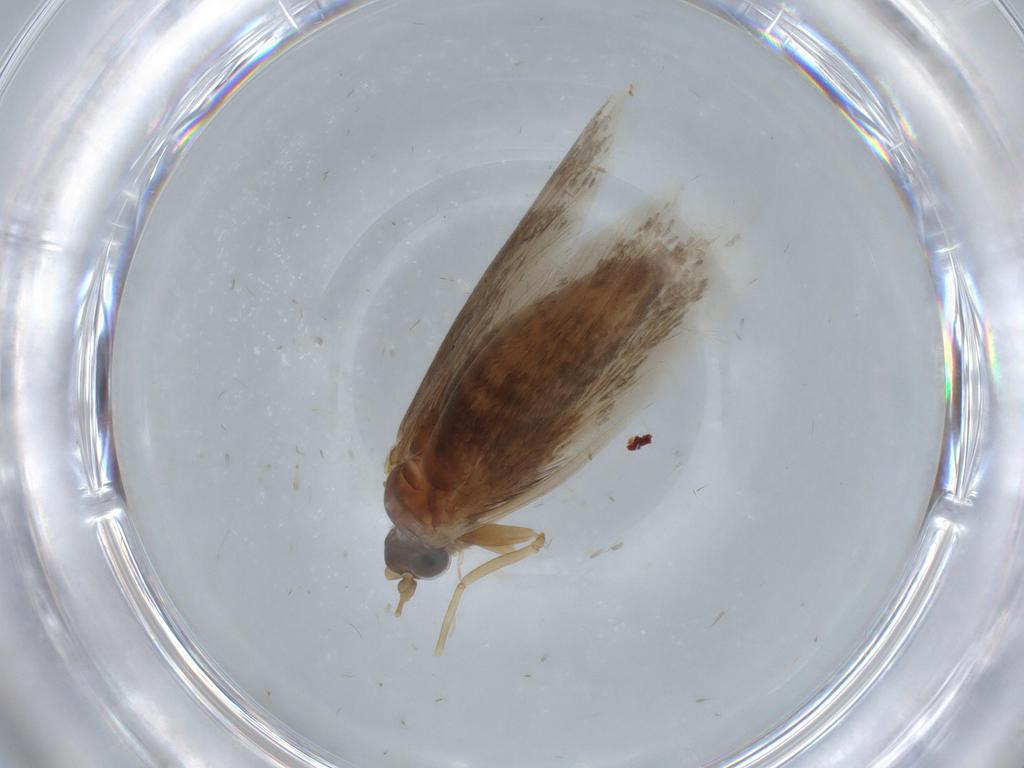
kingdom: Animalia
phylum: Arthropoda
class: Insecta
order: Lepidoptera
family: Adelidae
